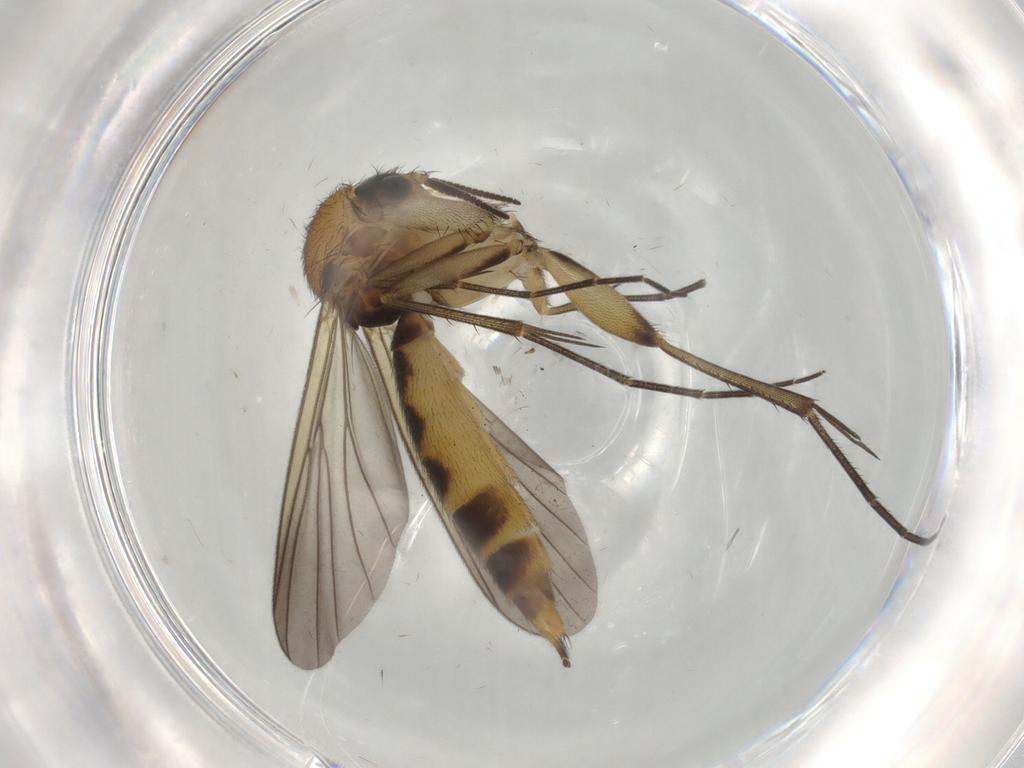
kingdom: Animalia
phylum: Arthropoda
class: Insecta
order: Diptera
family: Mycetophilidae
